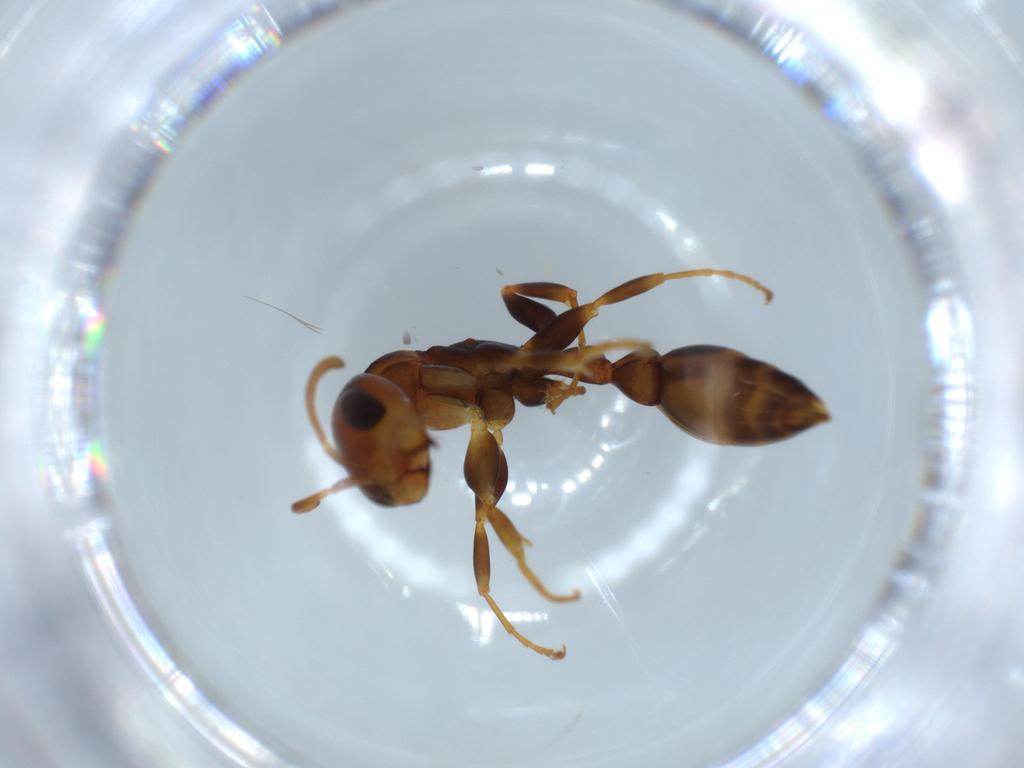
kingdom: Animalia
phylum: Arthropoda
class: Insecta
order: Hymenoptera
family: Formicidae
